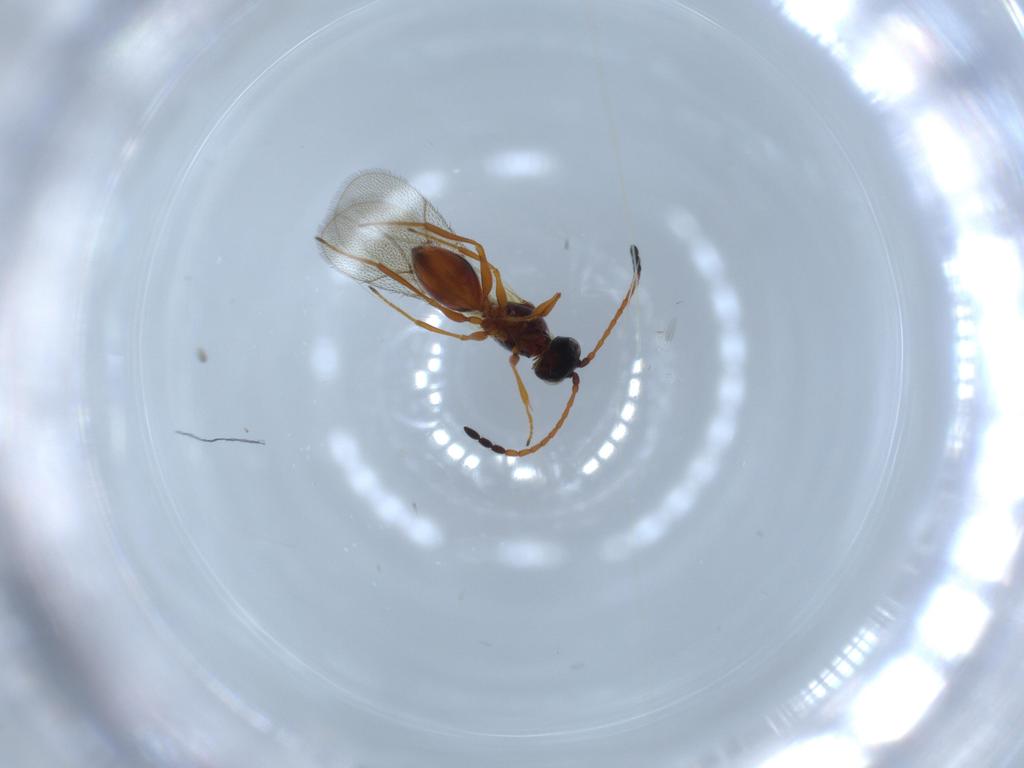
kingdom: Animalia
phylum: Arthropoda
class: Insecta
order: Hymenoptera
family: Figitidae
